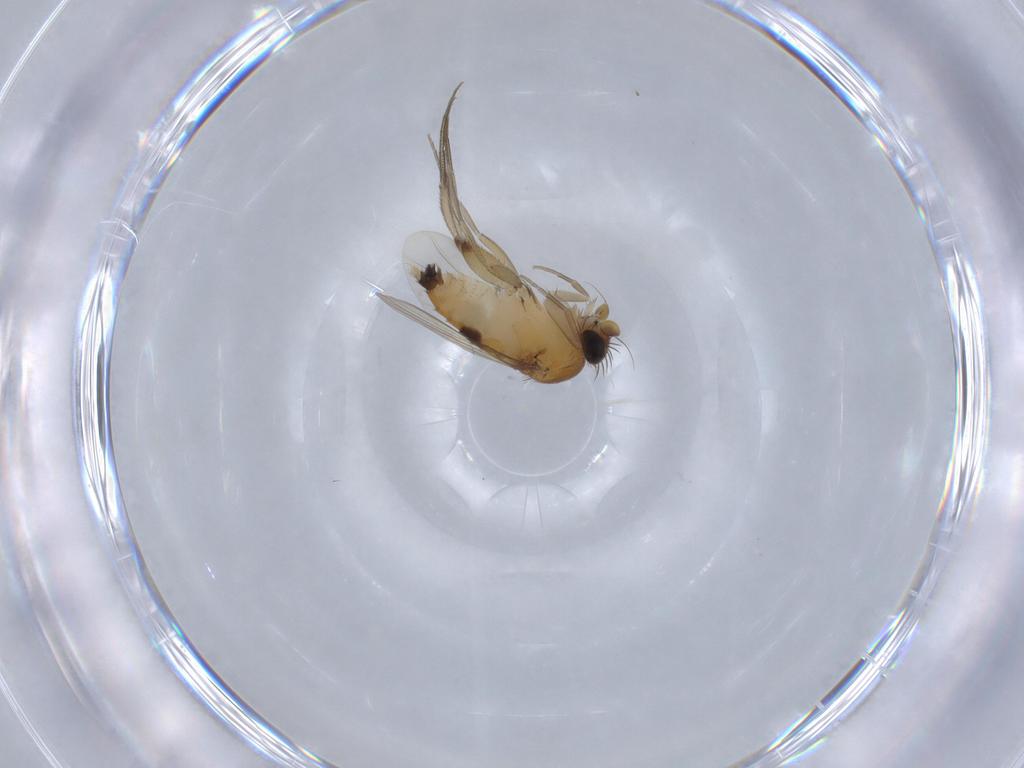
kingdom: Animalia
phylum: Arthropoda
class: Insecta
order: Diptera
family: Phoridae
